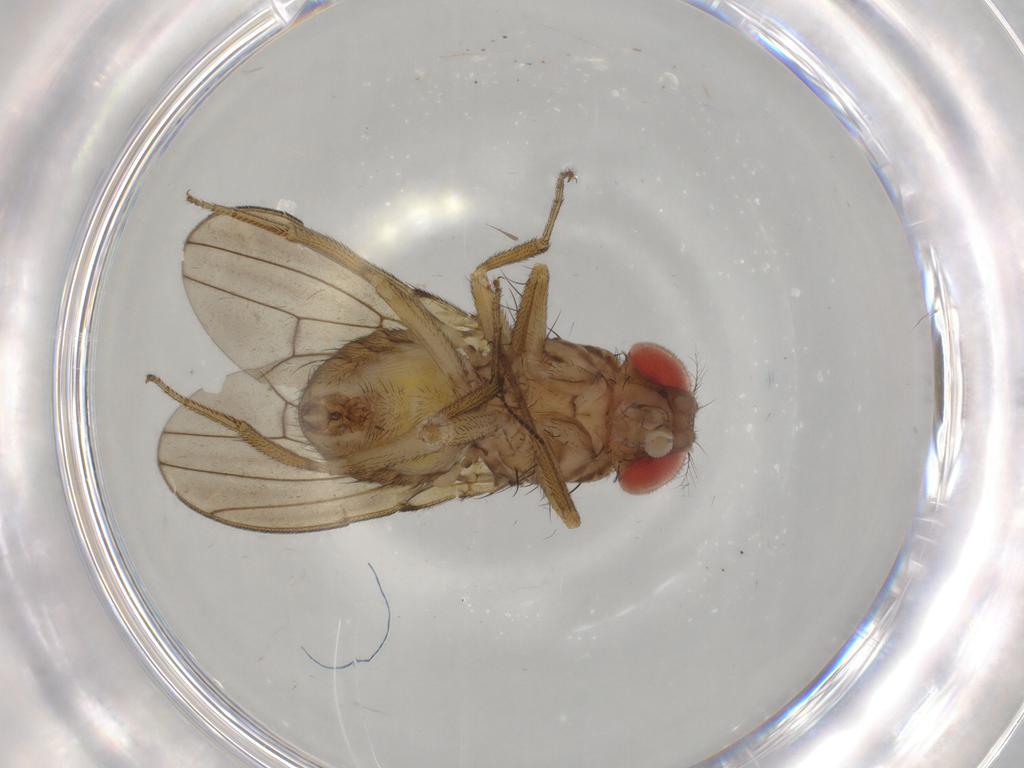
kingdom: Animalia
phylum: Arthropoda
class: Insecta
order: Diptera
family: Drosophilidae
